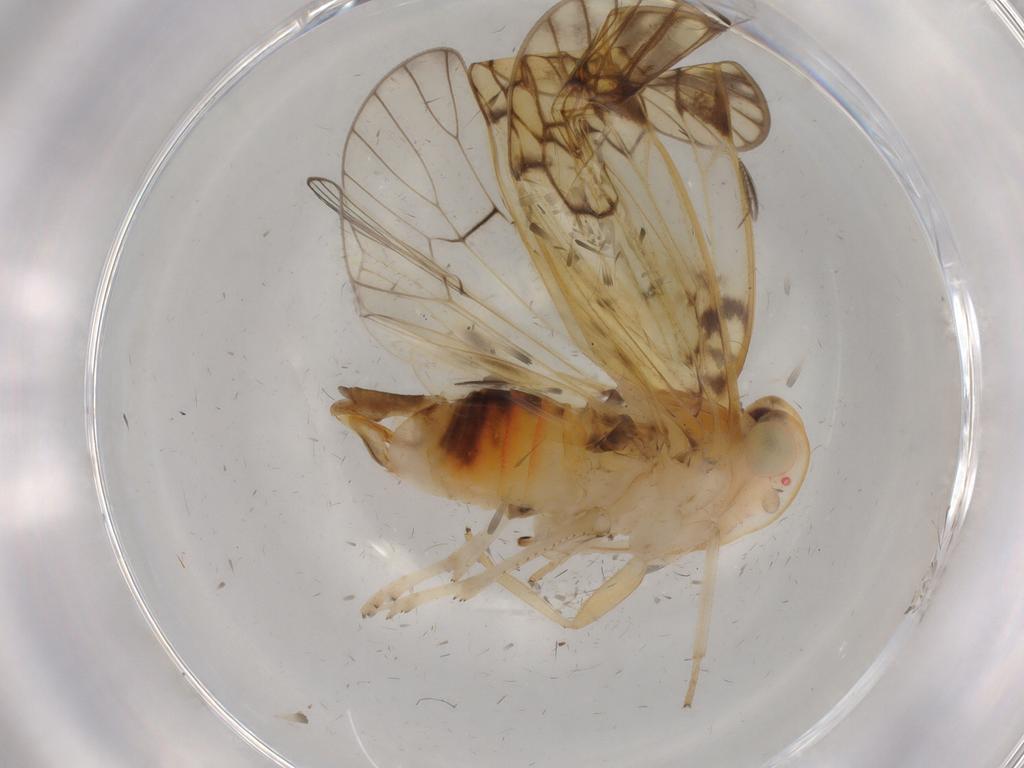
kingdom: Animalia
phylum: Arthropoda
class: Insecta
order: Hemiptera
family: Cixiidae
